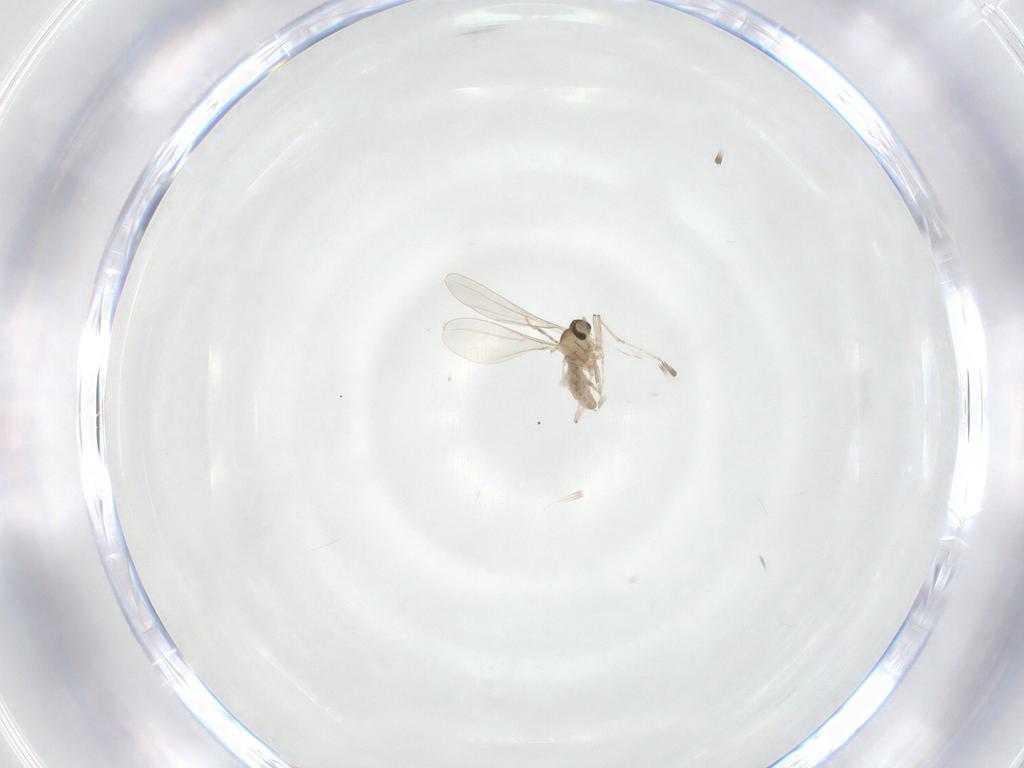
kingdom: Animalia
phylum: Arthropoda
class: Insecta
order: Diptera
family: Cecidomyiidae
